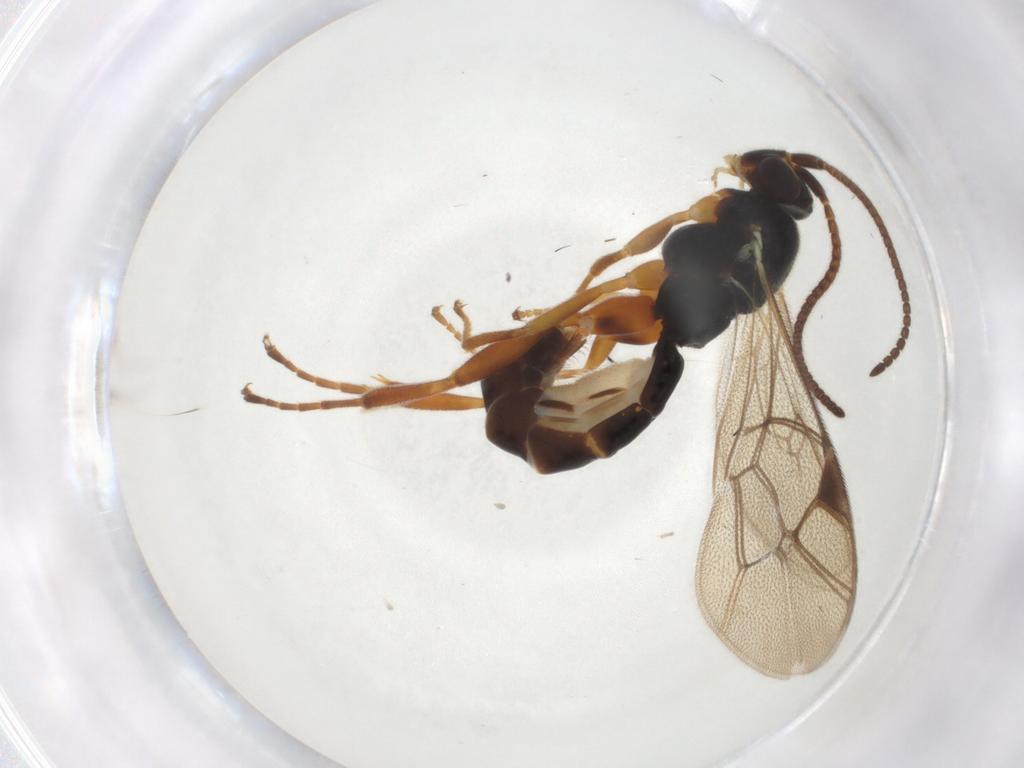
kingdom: Animalia
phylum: Arthropoda
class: Insecta
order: Hymenoptera
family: Ichneumonidae
